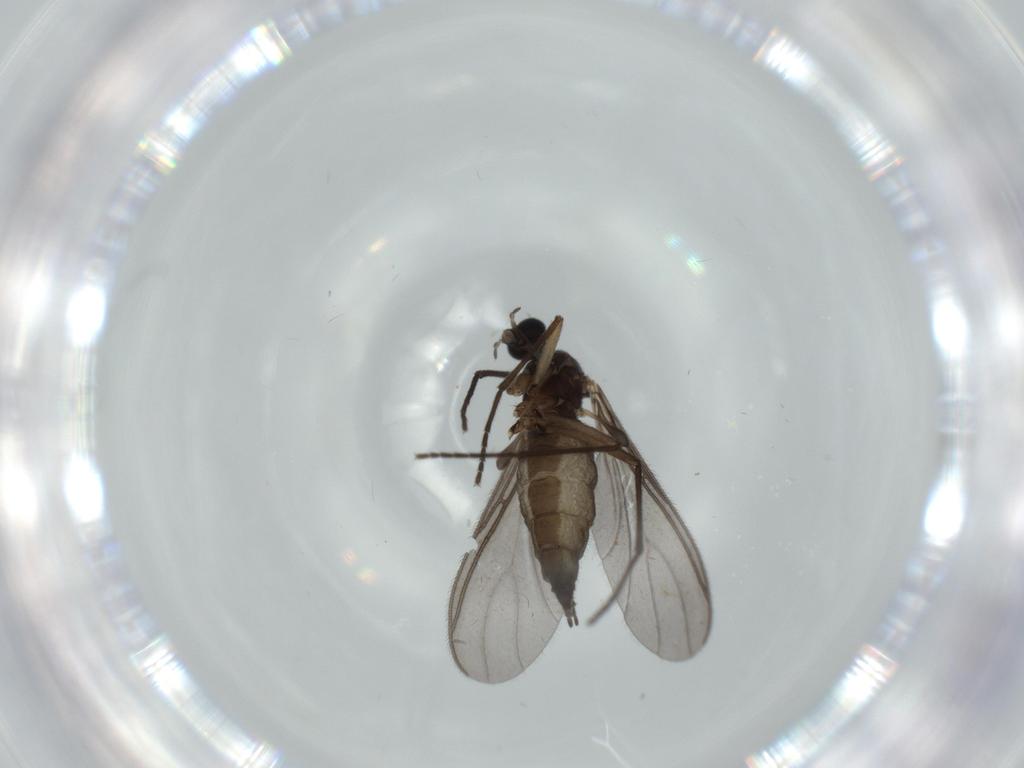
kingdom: Animalia
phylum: Arthropoda
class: Insecta
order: Diptera
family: Sciaridae
